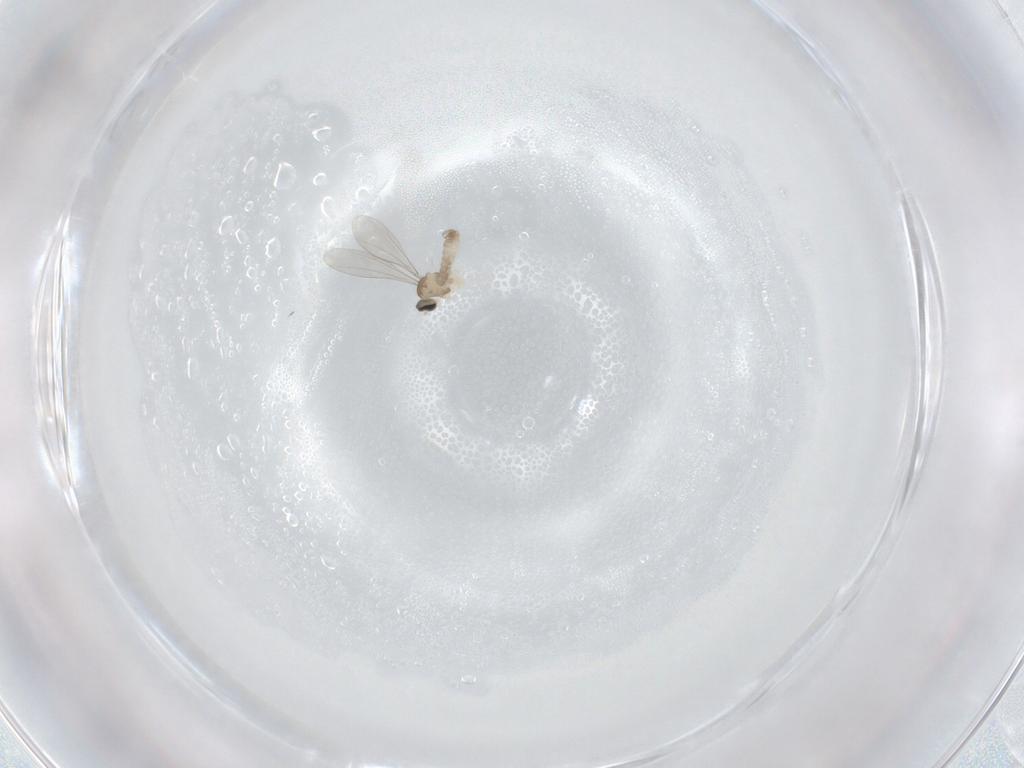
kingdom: Animalia
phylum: Arthropoda
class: Insecta
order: Diptera
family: Cecidomyiidae
